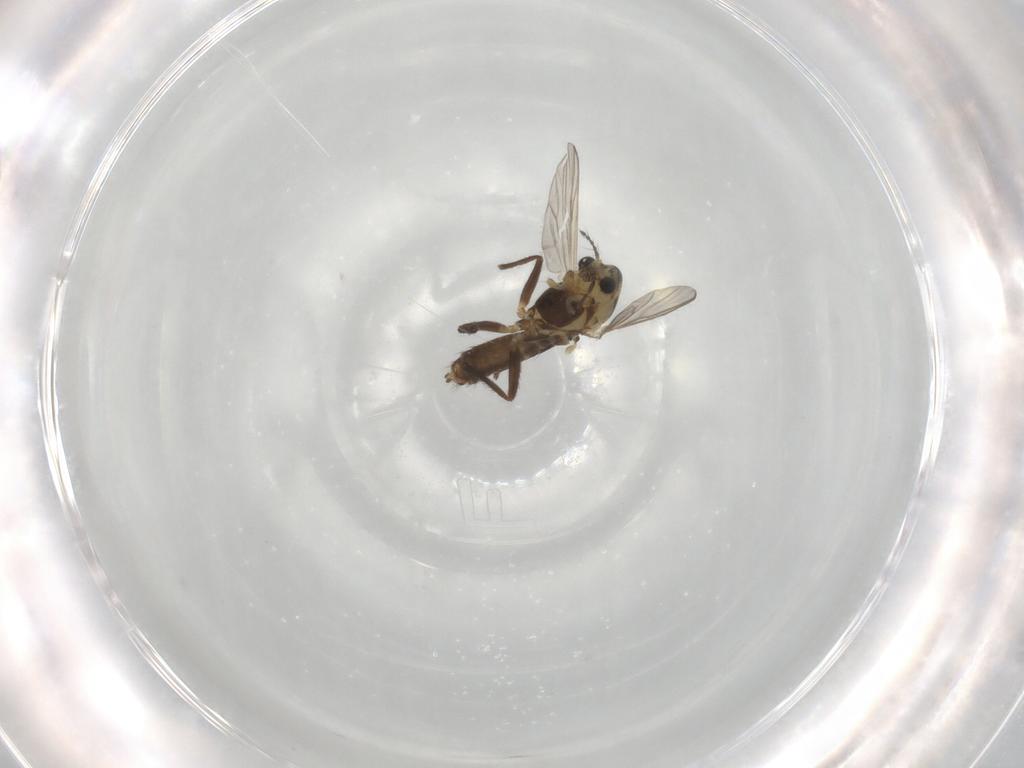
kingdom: Animalia
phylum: Arthropoda
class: Insecta
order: Diptera
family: Chironomidae
